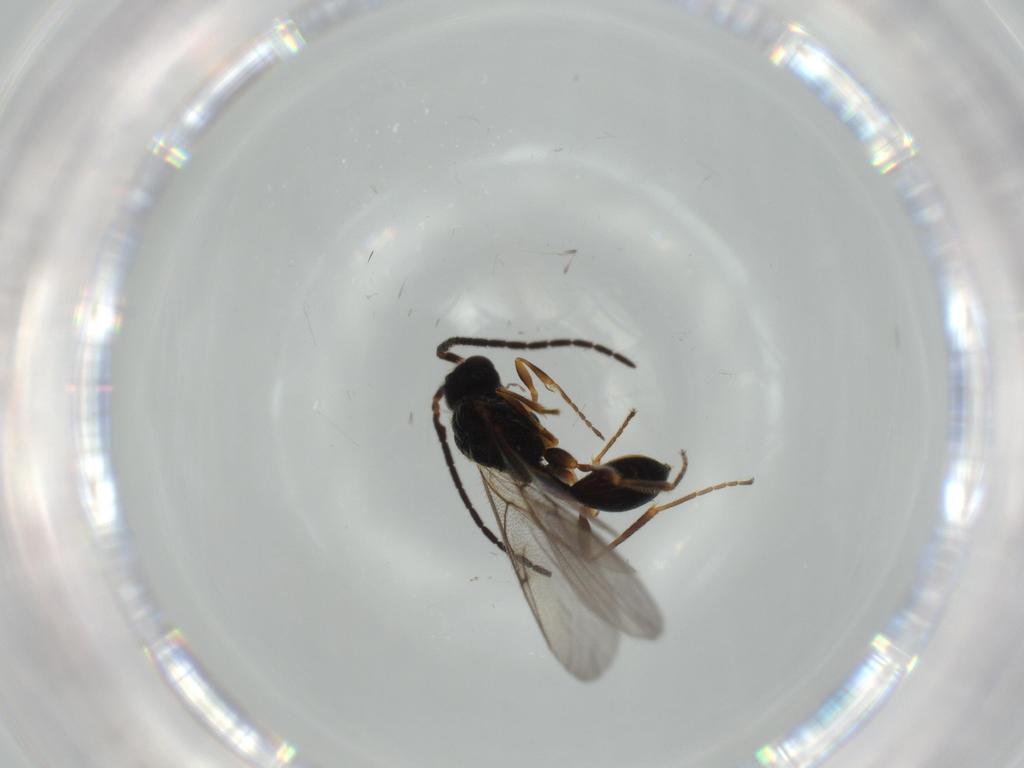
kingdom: Animalia
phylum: Arthropoda
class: Insecta
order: Hymenoptera
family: Diapriidae
